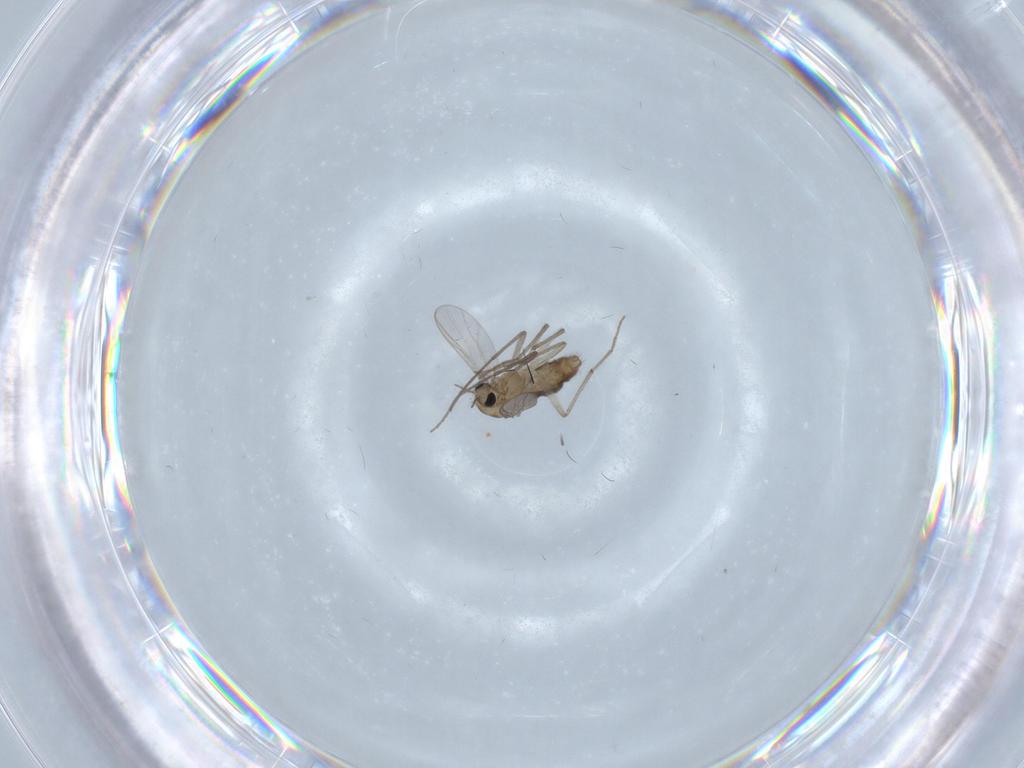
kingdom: Animalia
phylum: Arthropoda
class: Insecta
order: Diptera
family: Chironomidae
